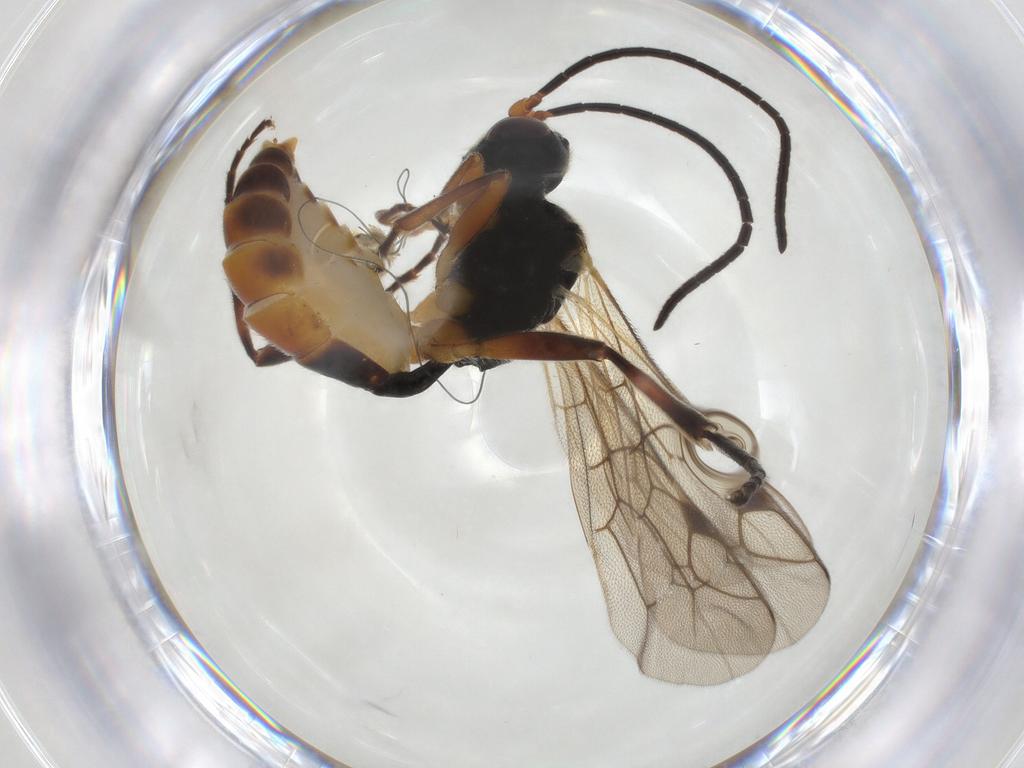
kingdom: Animalia
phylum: Arthropoda
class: Insecta
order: Hymenoptera
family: Ichneumonidae
